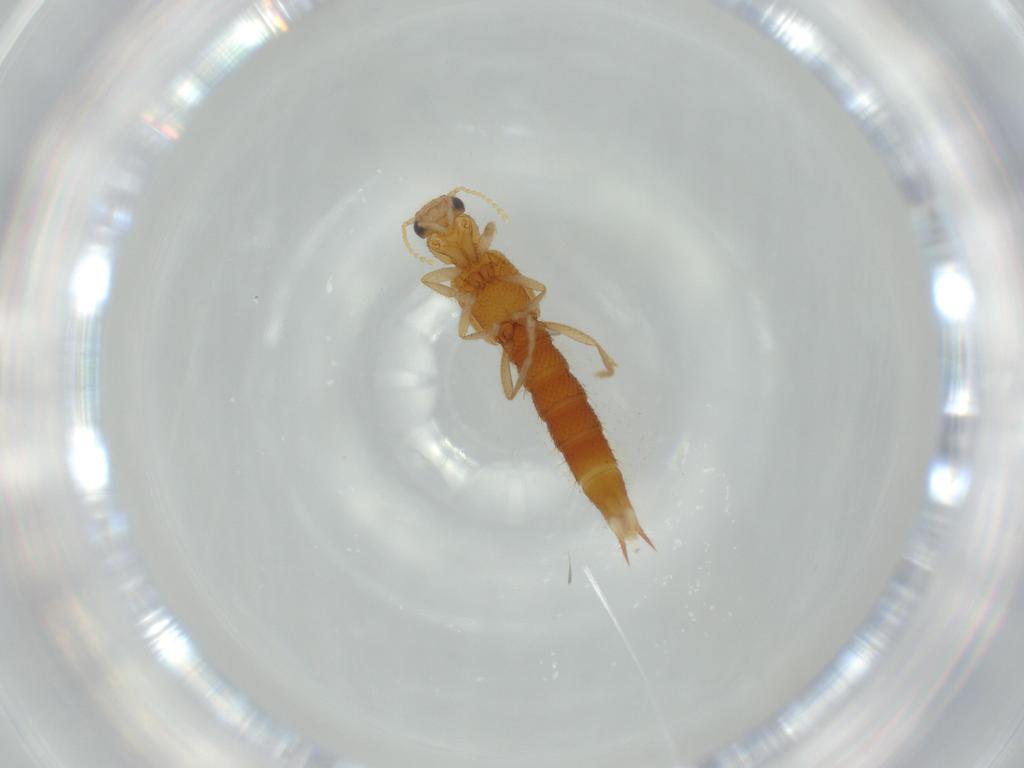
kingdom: Animalia
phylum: Arthropoda
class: Insecta
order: Coleoptera
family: Staphylinidae
